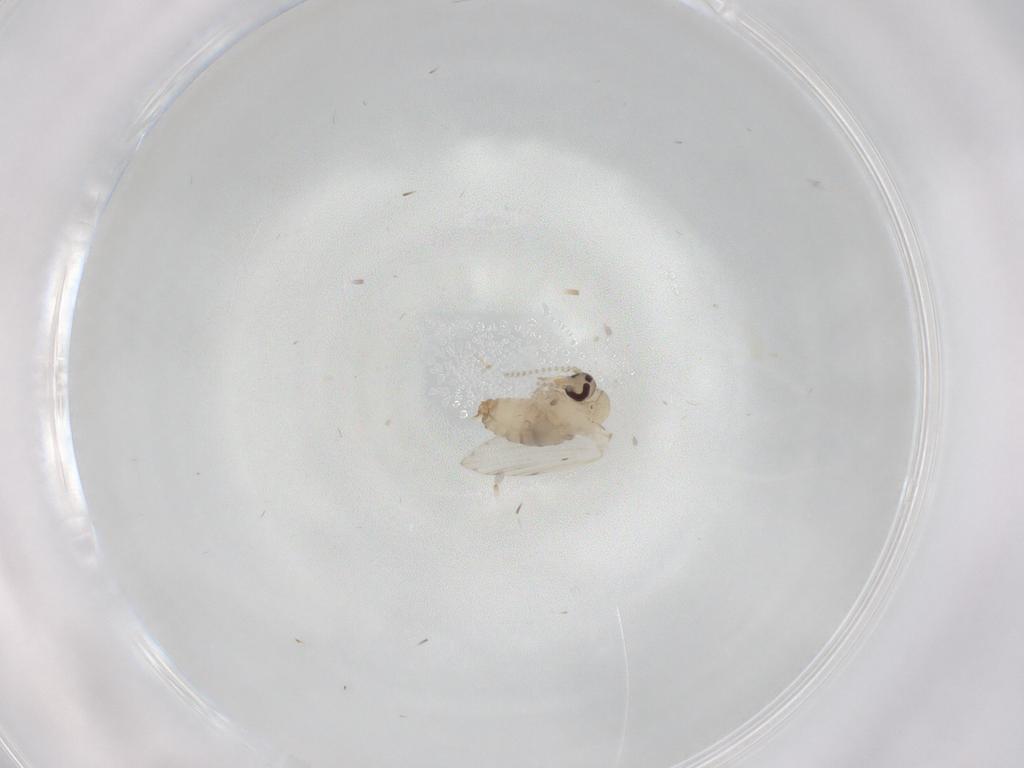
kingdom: Animalia
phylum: Arthropoda
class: Insecta
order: Diptera
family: Psychodidae
